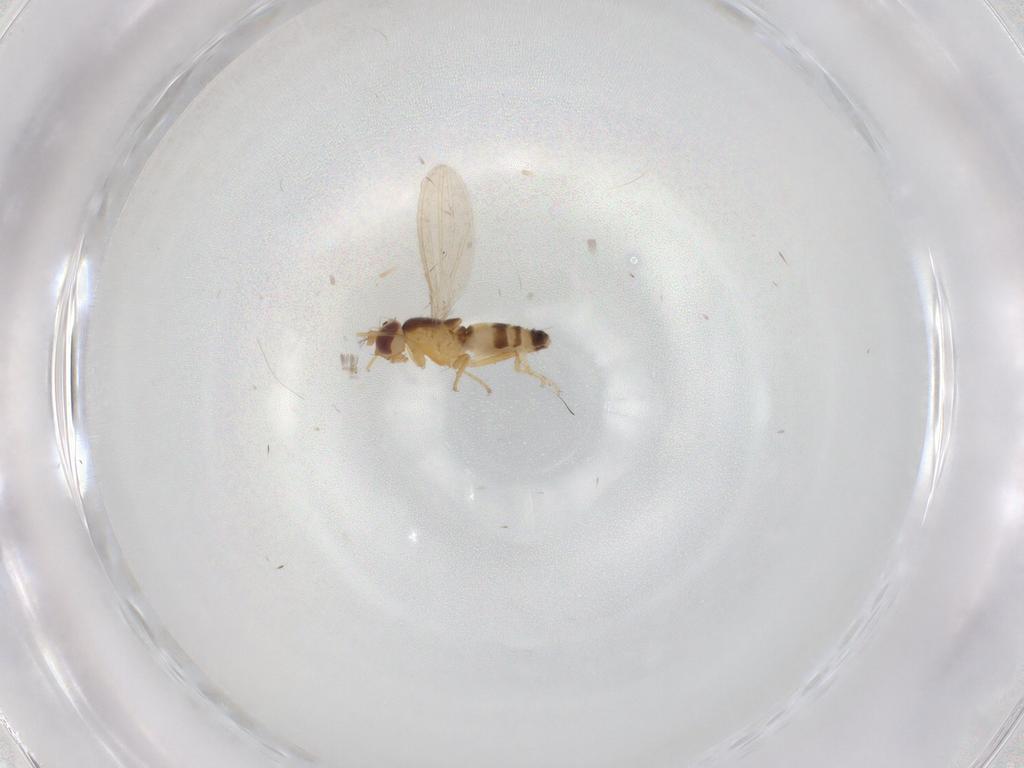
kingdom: Animalia
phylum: Arthropoda
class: Insecta
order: Diptera
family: Cecidomyiidae
